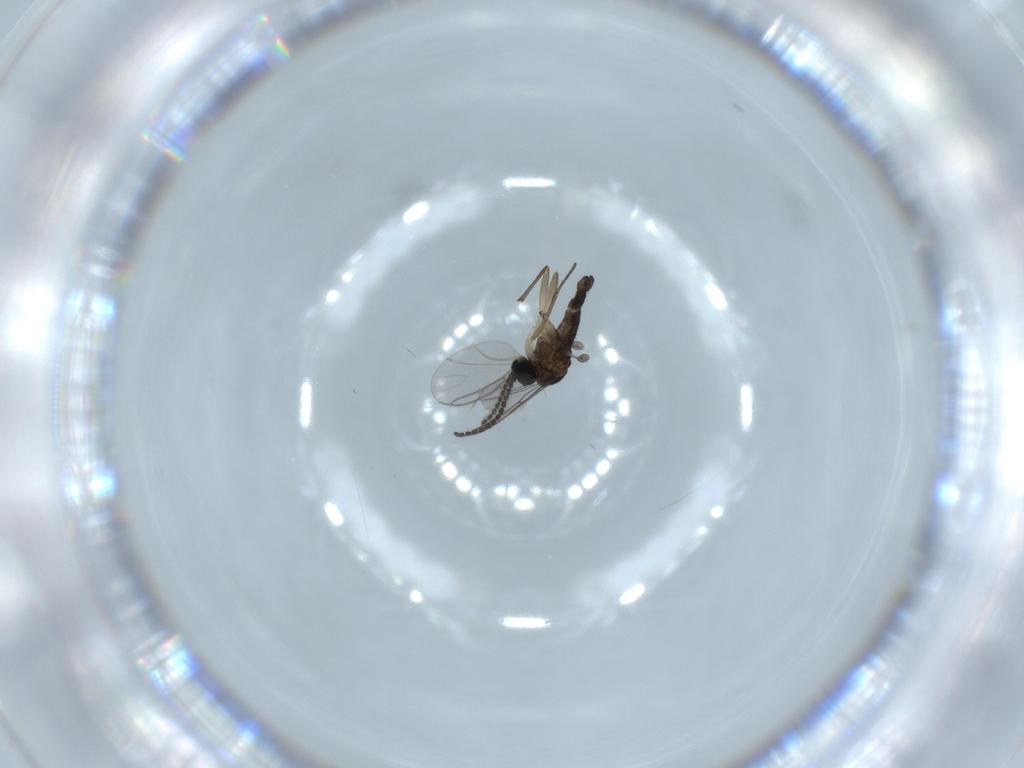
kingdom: Animalia
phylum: Arthropoda
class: Insecta
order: Diptera
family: Sciaridae
